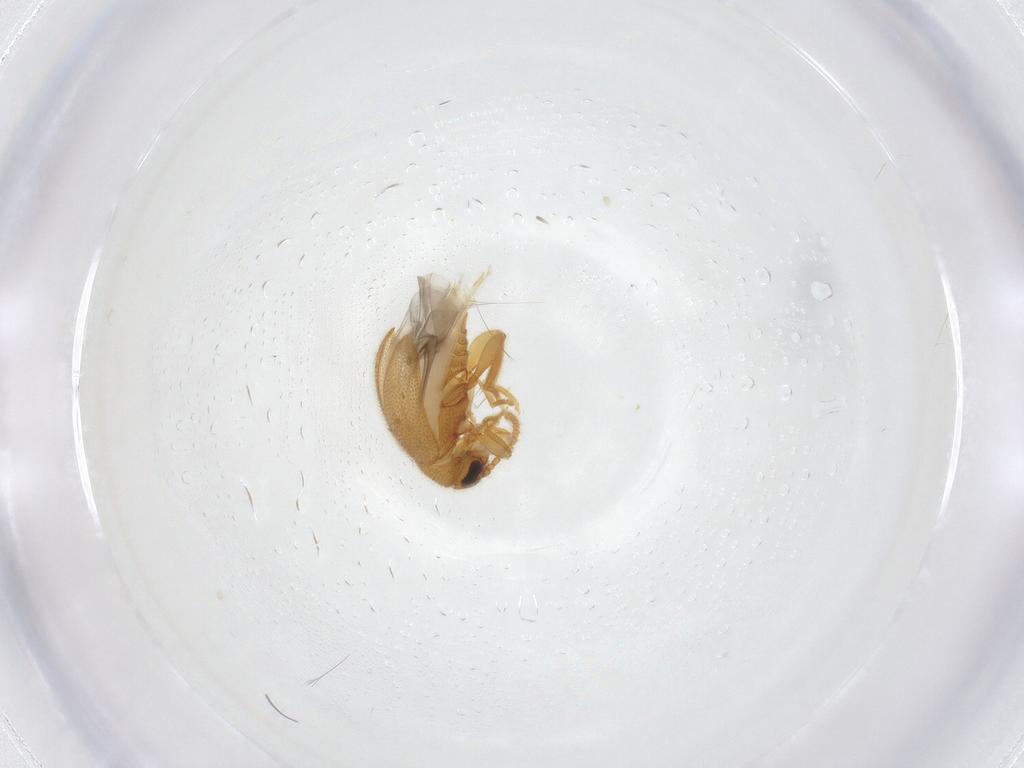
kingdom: Animalia
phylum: Arthropoda
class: Insecta
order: Coleoptera
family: Aderidae
